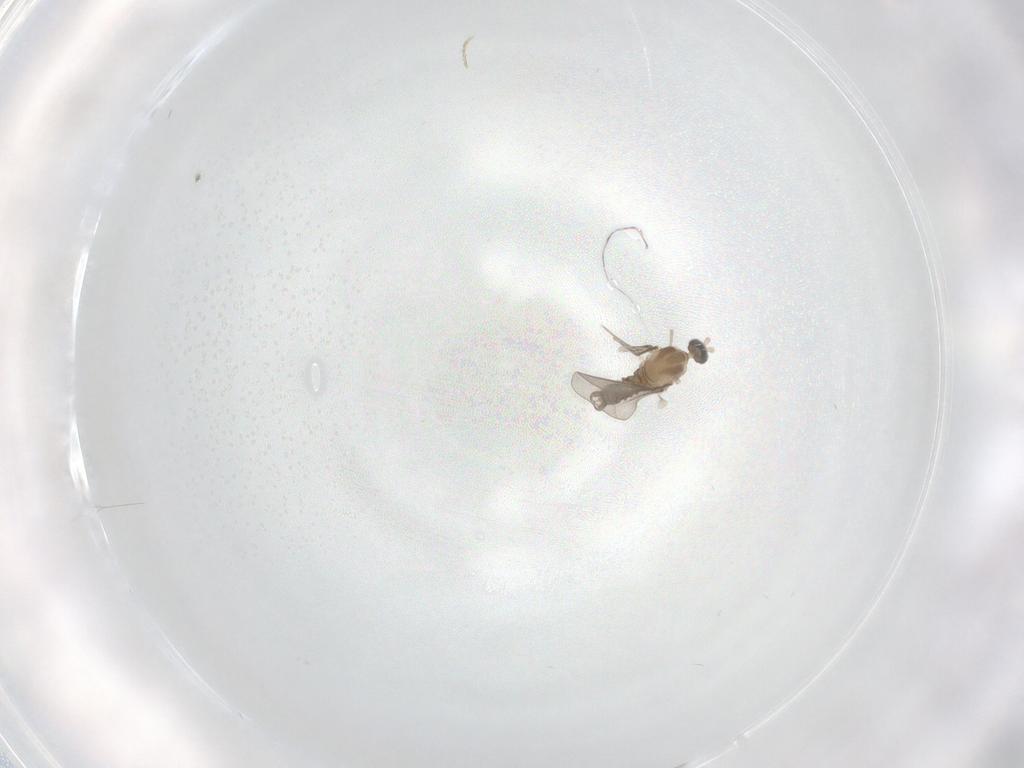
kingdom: Animalia
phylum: Arthropoda
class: Insecta
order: Diptera
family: Cecidomyiidae
